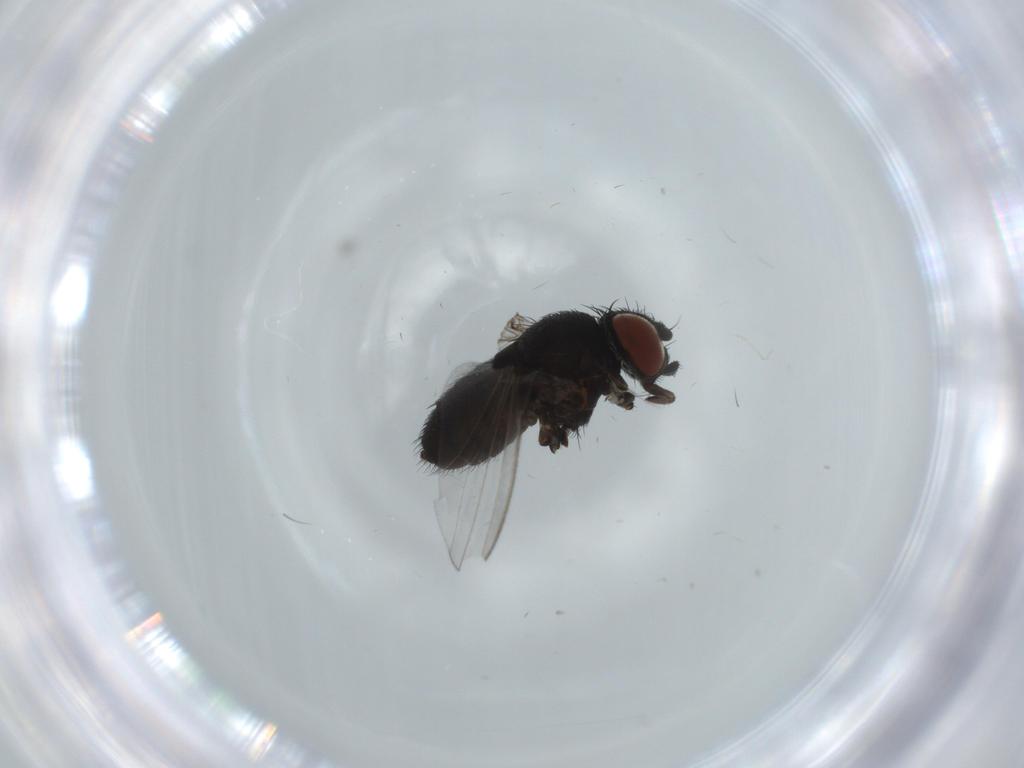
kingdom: Animalia
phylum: Arthropoda
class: Insecta
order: Diptera
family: Milichiidae
